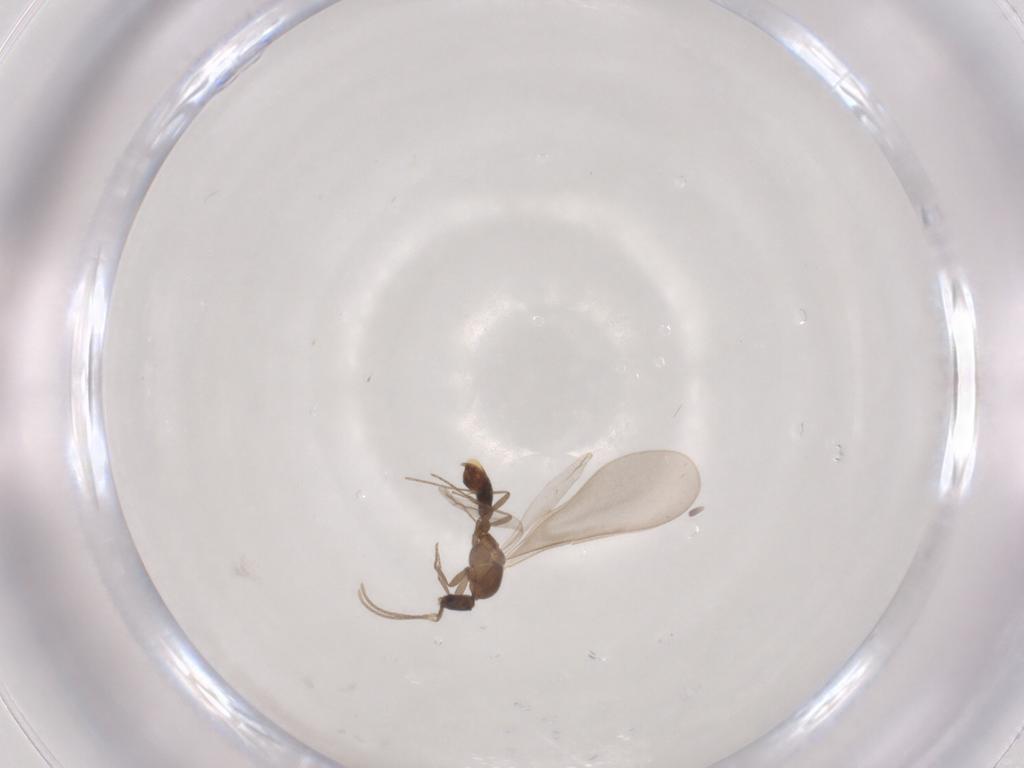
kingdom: Animalia
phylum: Arthropoda
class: Insecta
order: Hymenoptera
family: Formicidae
